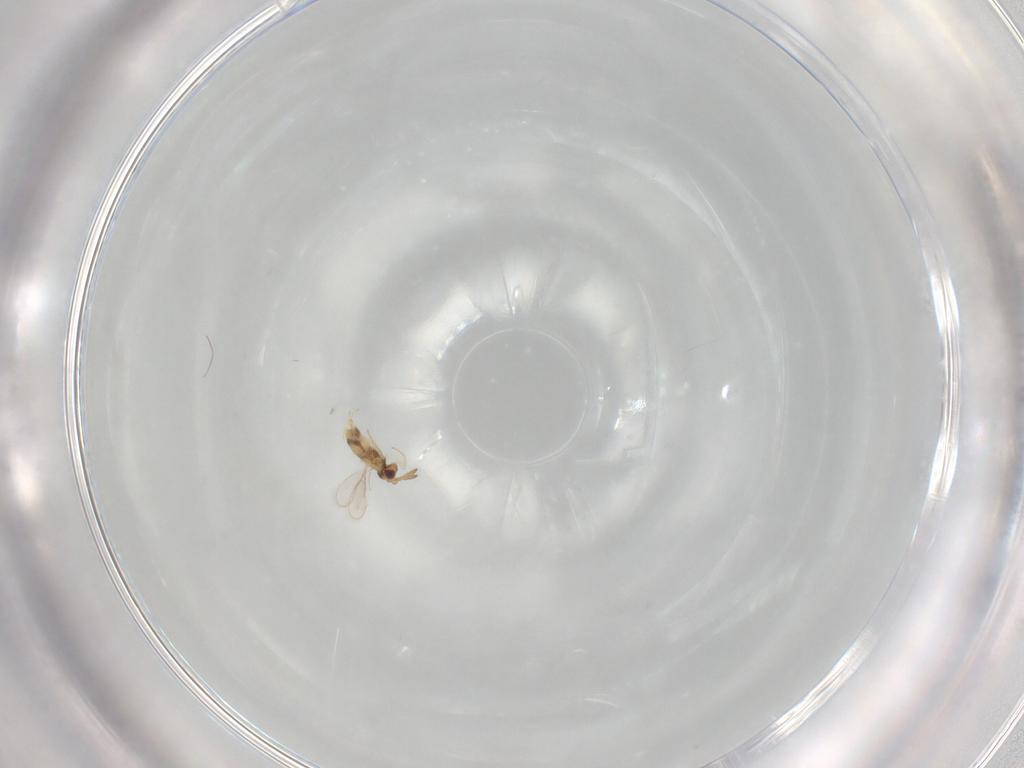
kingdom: Animalia
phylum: Arthropoda
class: Insecta
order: Hymenoptera
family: Aphelinidae
